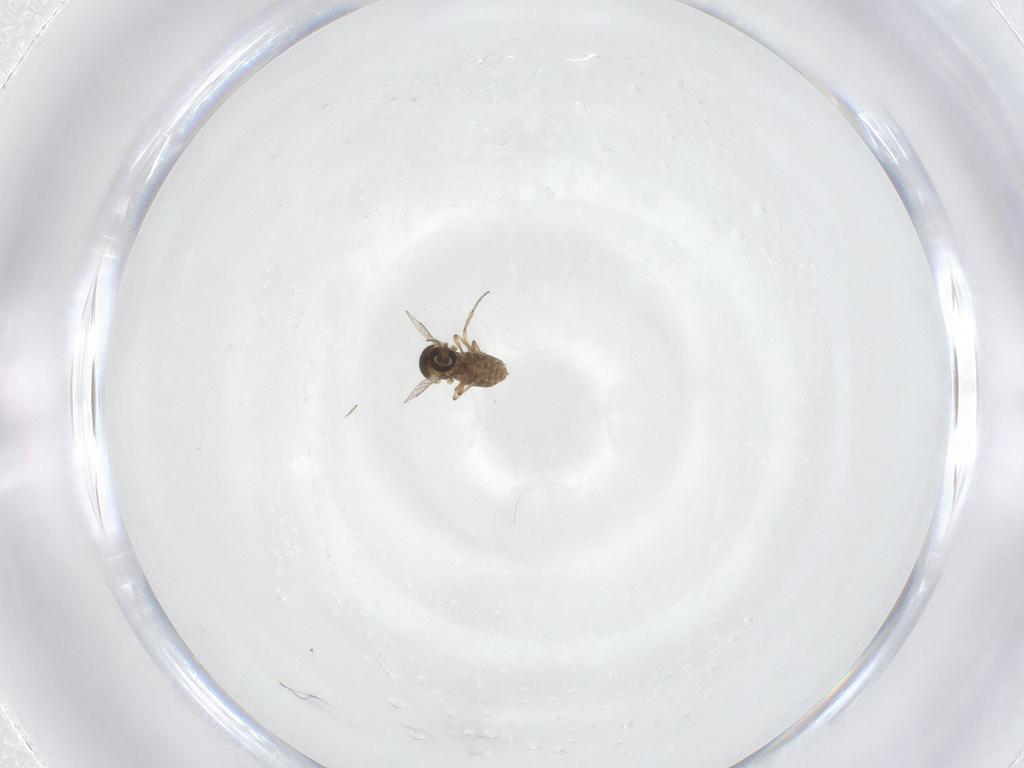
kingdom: Animalia
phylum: Arthropoda
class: Insecta
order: Diptera
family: Ceratopogonidae
